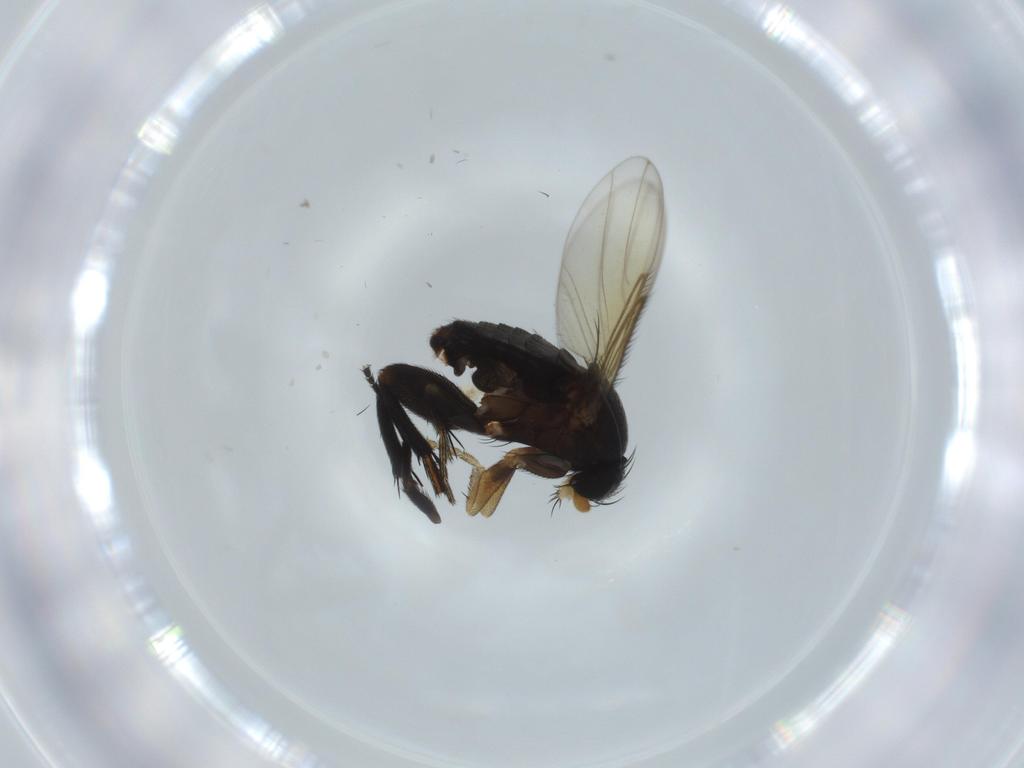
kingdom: Animalia
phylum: Arthropoda
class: Insecta
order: Diptera
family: Phoridae
